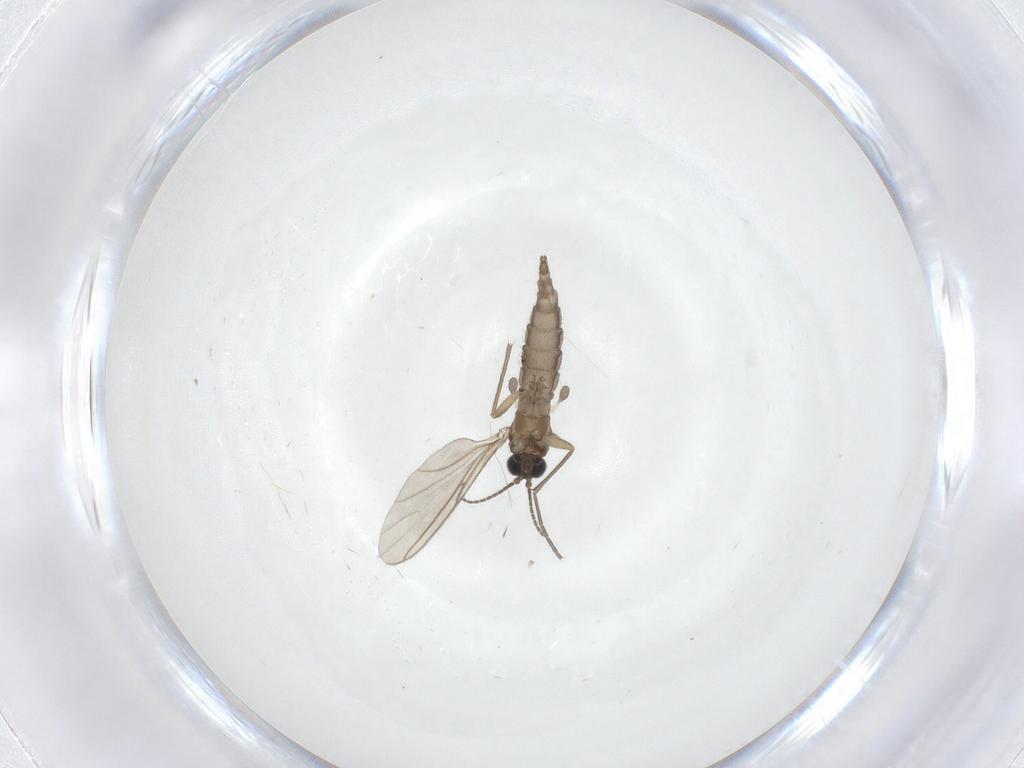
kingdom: Animalia
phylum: Arthropoda
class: Insecta
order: Diptera
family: Sciaridae
